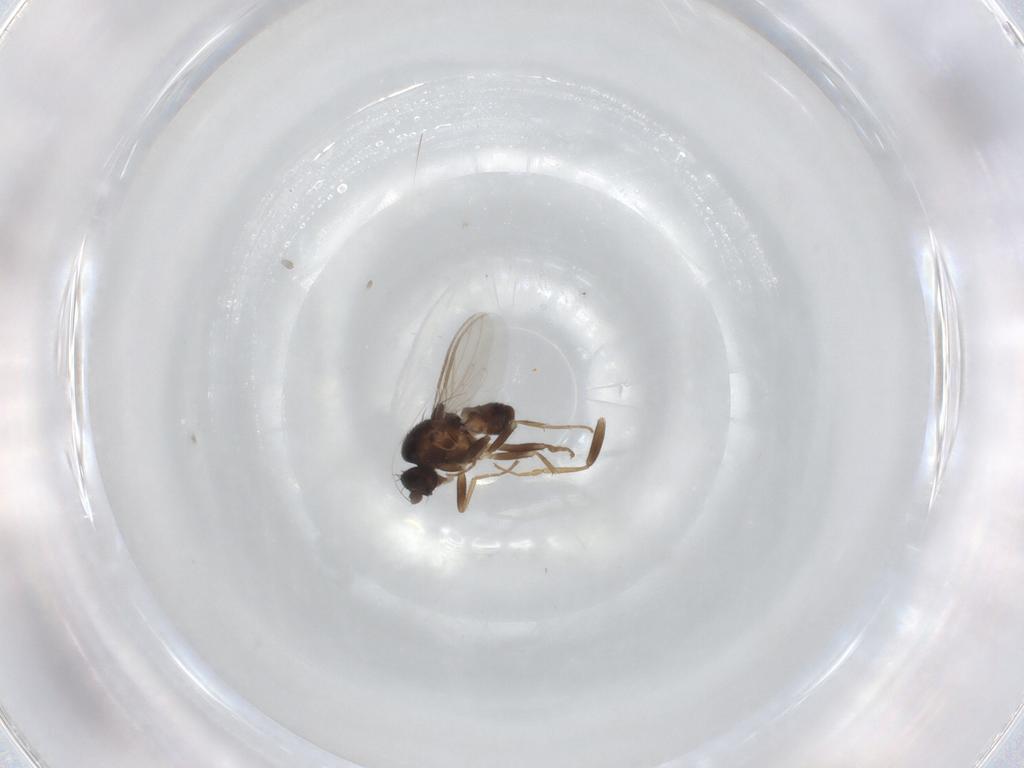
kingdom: Animalia
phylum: Arthropoda
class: Insecta
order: Diptera
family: Sphaeroceridae
